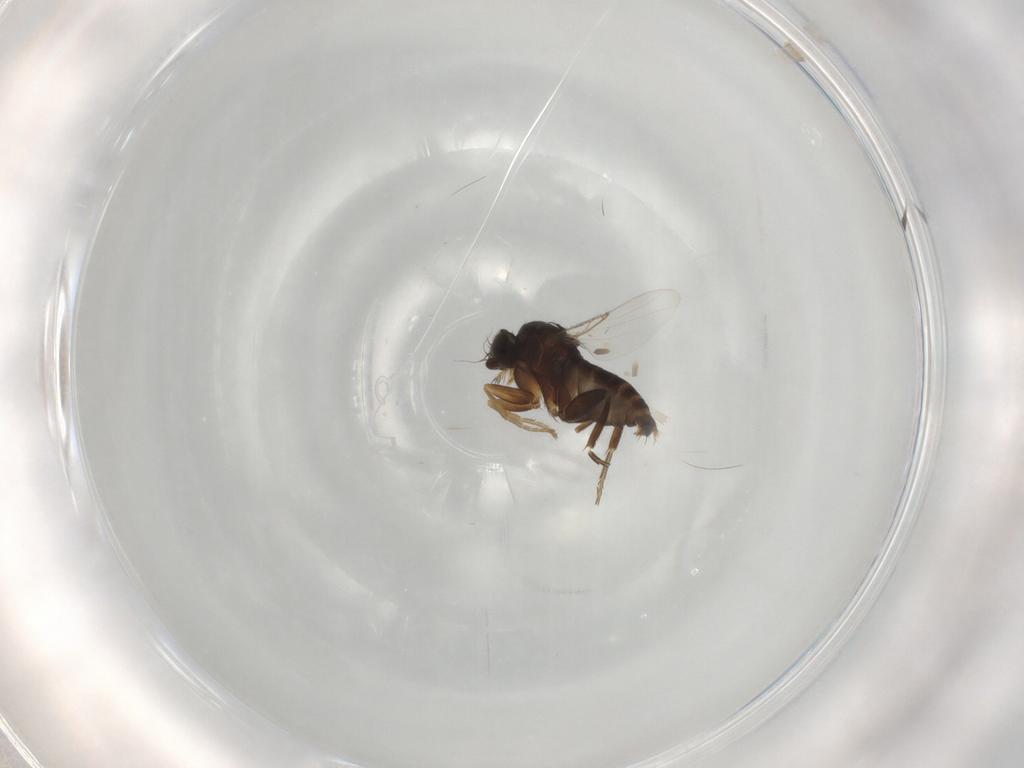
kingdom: Animalia
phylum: Arthropoda
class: Insecta
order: Diptera
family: Phoridae
